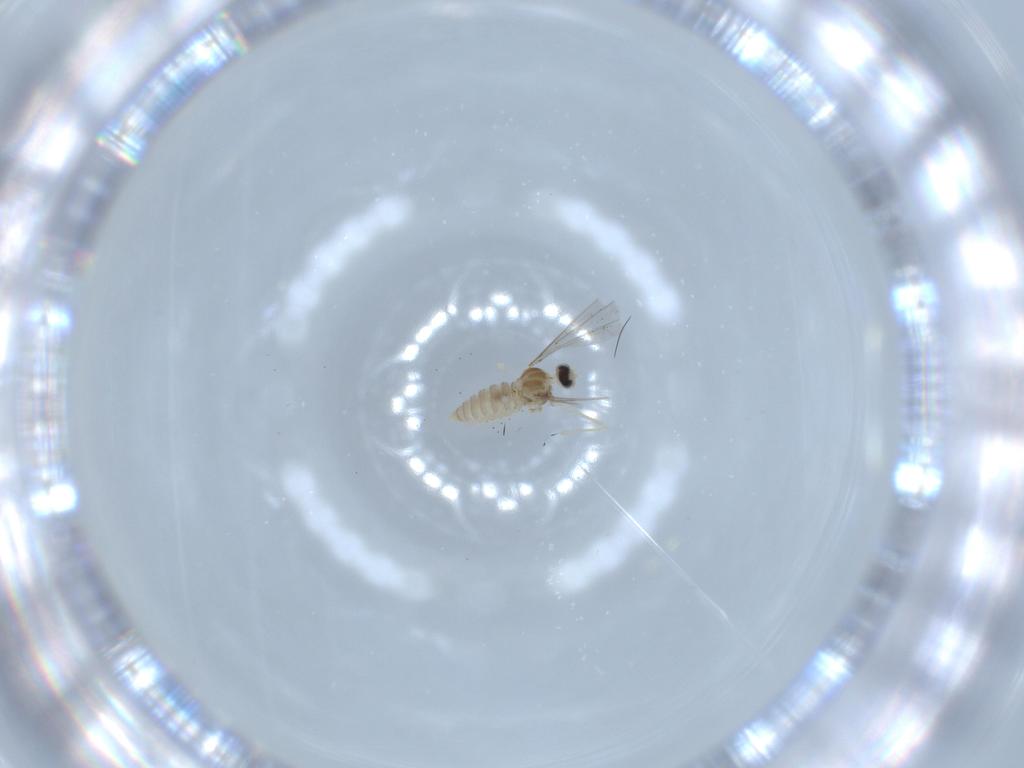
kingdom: Animalia
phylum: Arthropoda
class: Insecta
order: Diptera
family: Cecidomyiidae
